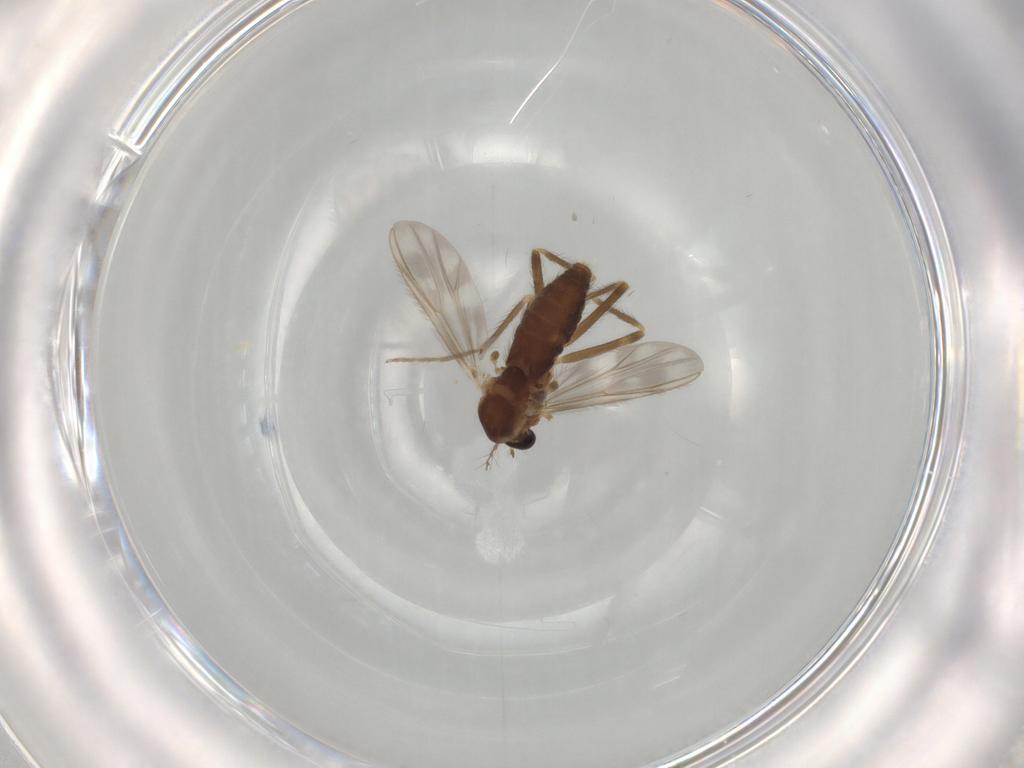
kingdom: Animalia
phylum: Arthropoda
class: Insecta
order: Diptera
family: Chironomidae
